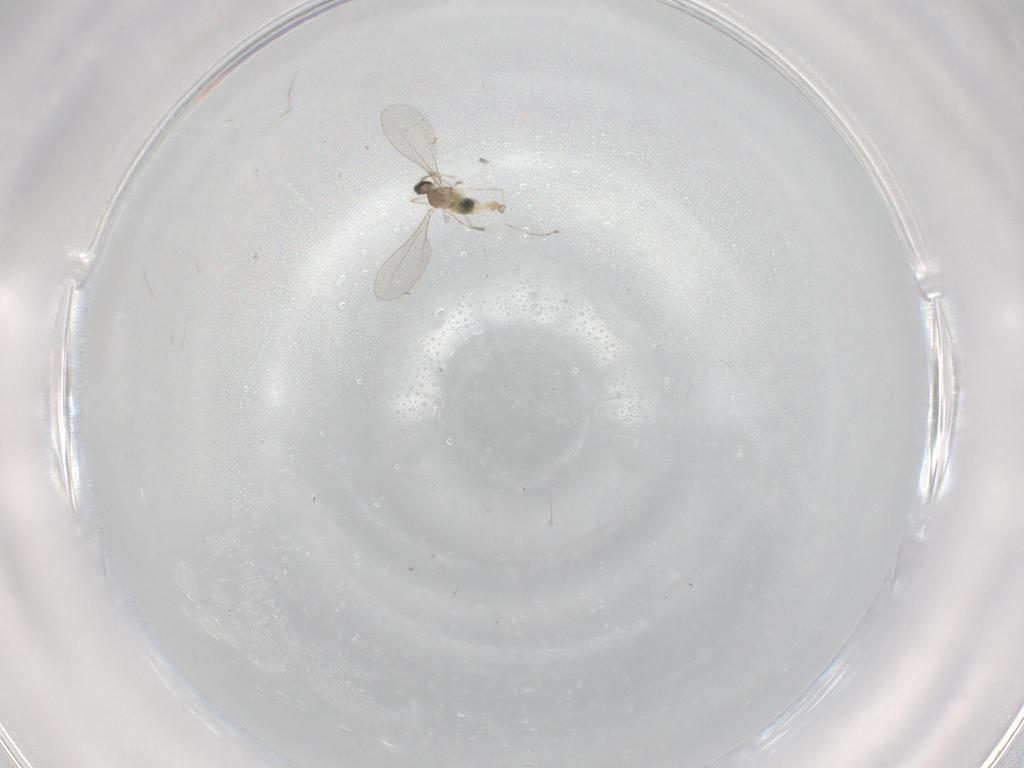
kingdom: Animalia
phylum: Arthropoda
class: Insecta
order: Diptera
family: Cecidomyiidae
